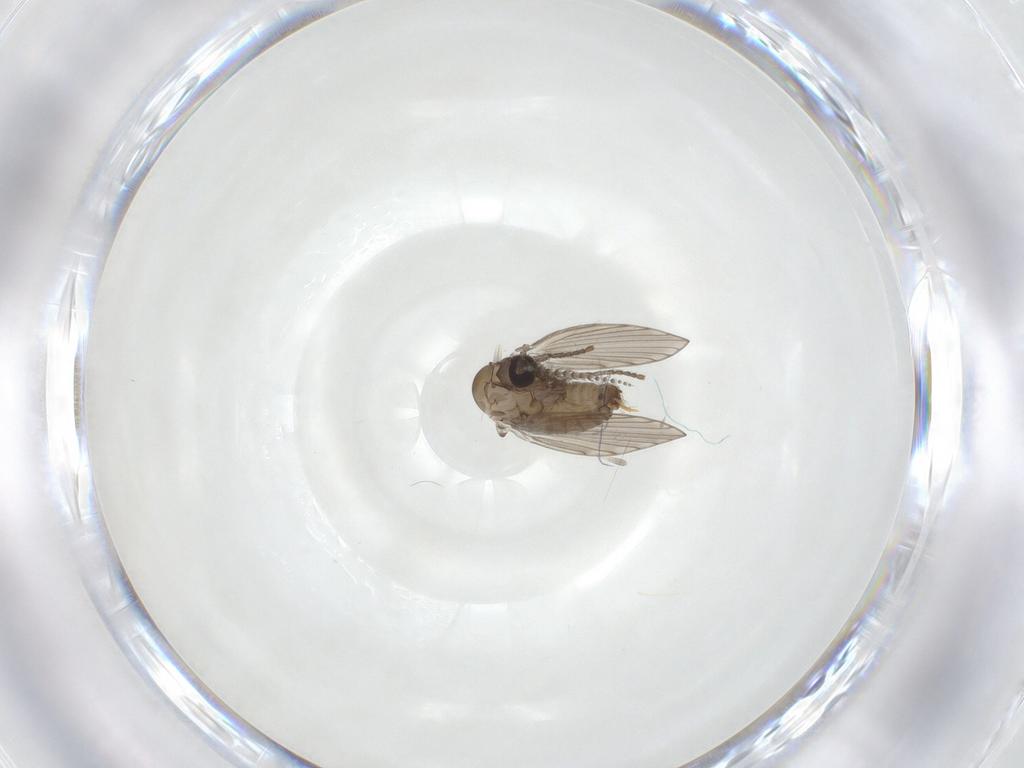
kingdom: Animalia
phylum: Arthropoda
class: Insecta
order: Diptera
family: Psychodidae
